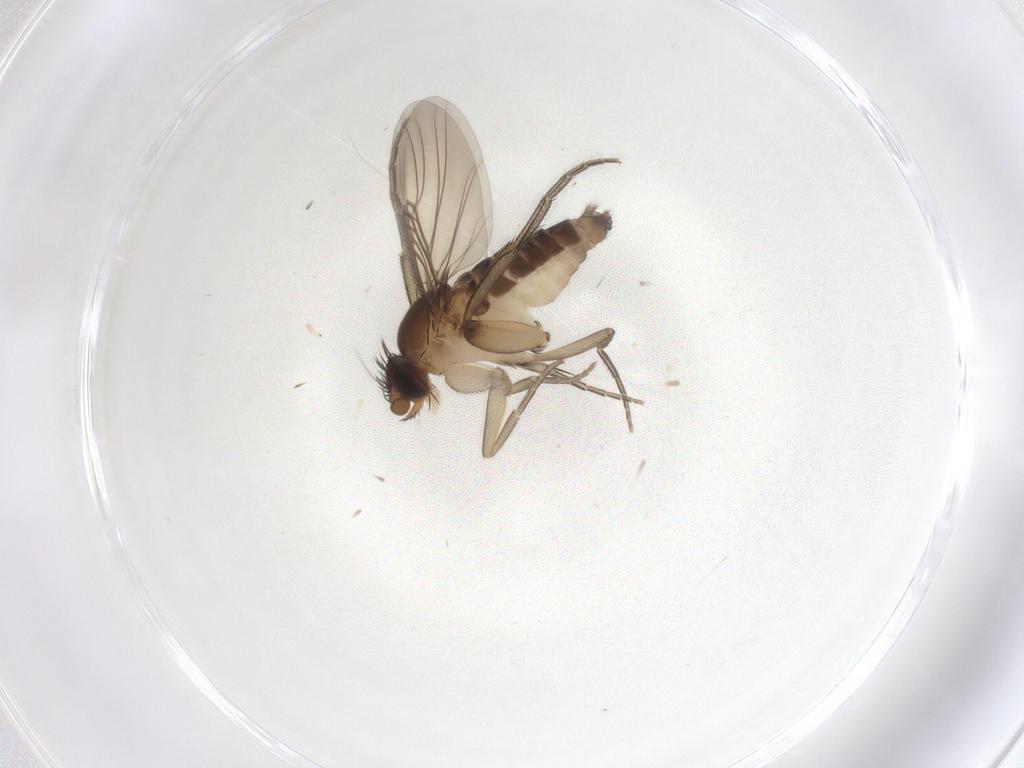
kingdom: Animalia
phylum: Arthropoda
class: Insecta
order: Diptera
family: Phoridae
